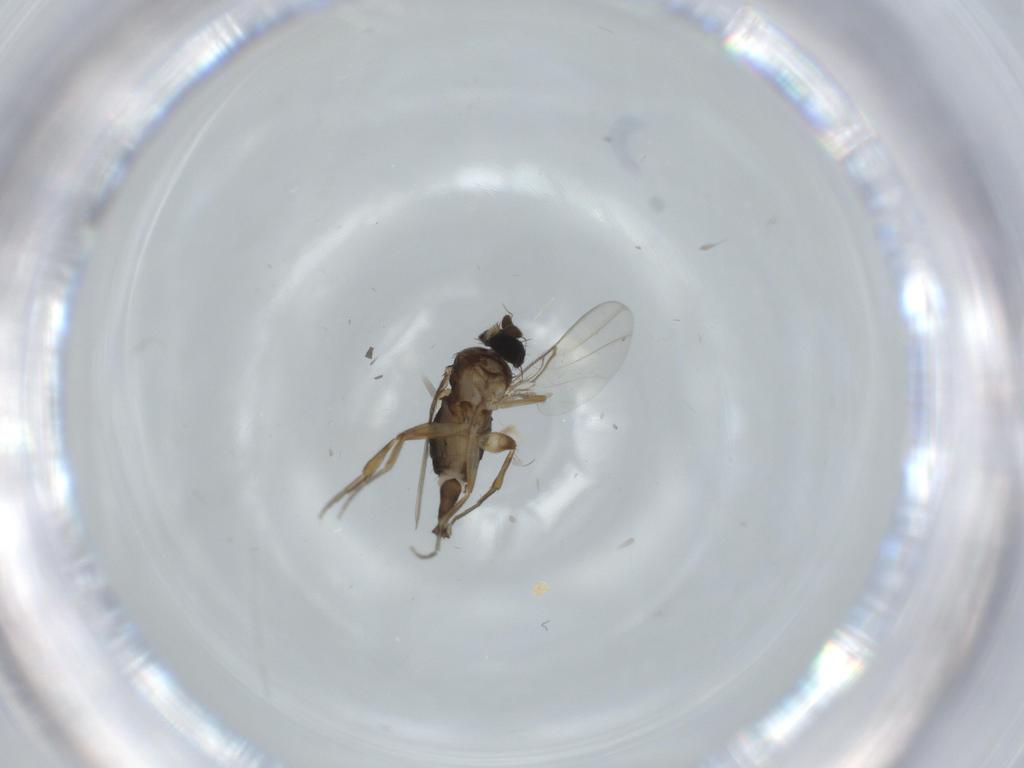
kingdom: Animalia
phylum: Arthropoda
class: Insecta
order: Diptera
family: Phoridae
